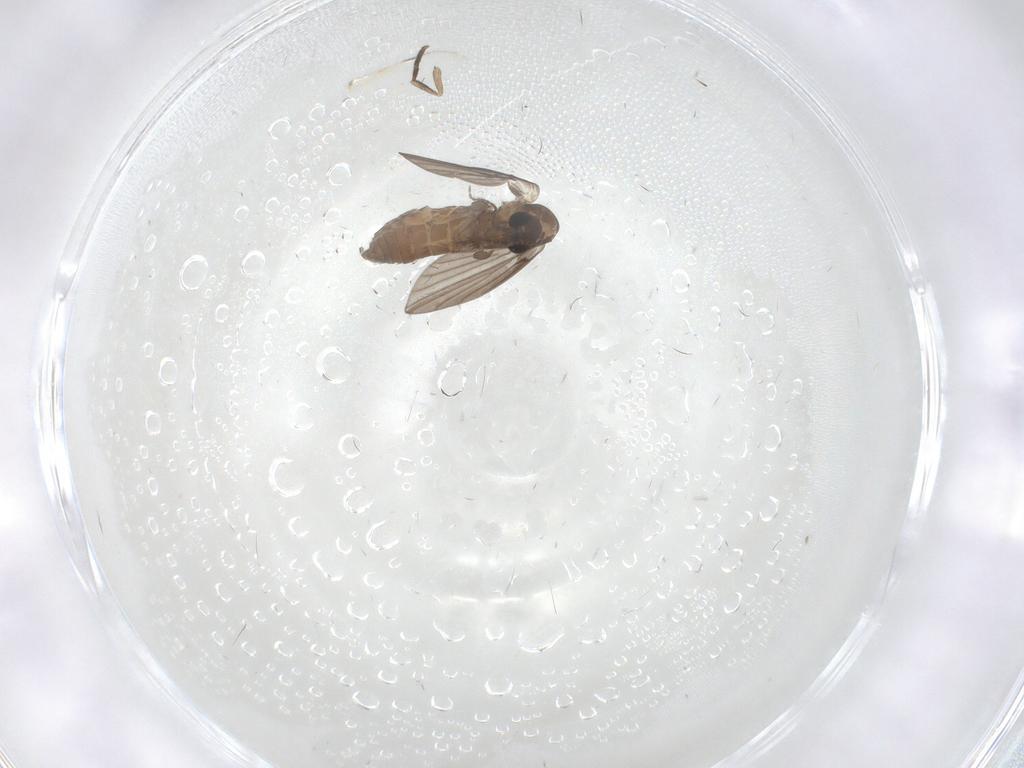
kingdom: Animalia
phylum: Arthropoda
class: Insecta
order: Diptera
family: Psychodidae
